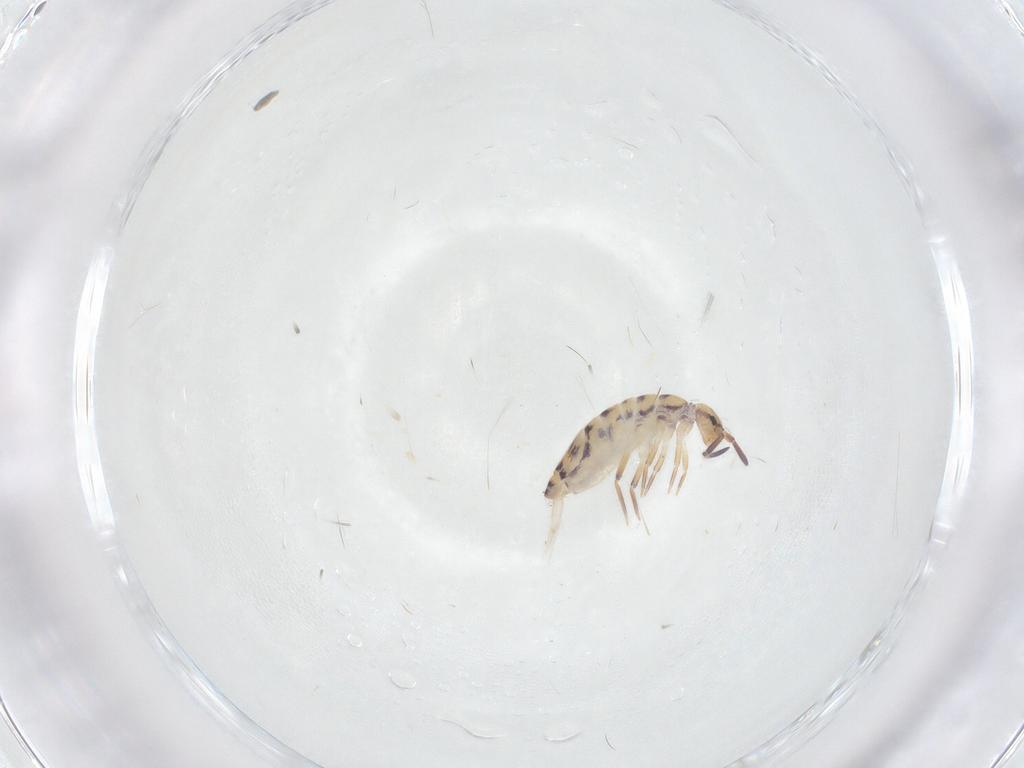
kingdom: Animalia
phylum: Arthropoda
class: Collembola
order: Entomobryomorpha
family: Entomobryidae
